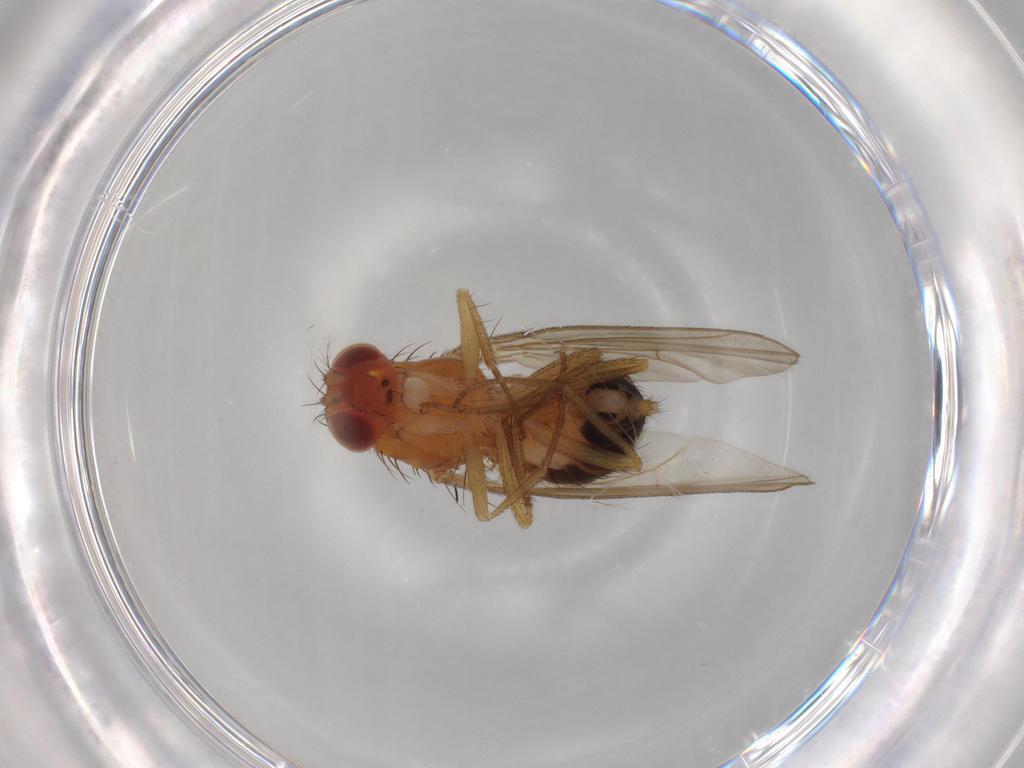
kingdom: Animalia
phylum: Arthropoda
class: Insecta
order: Diptera
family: Drosophilidae
